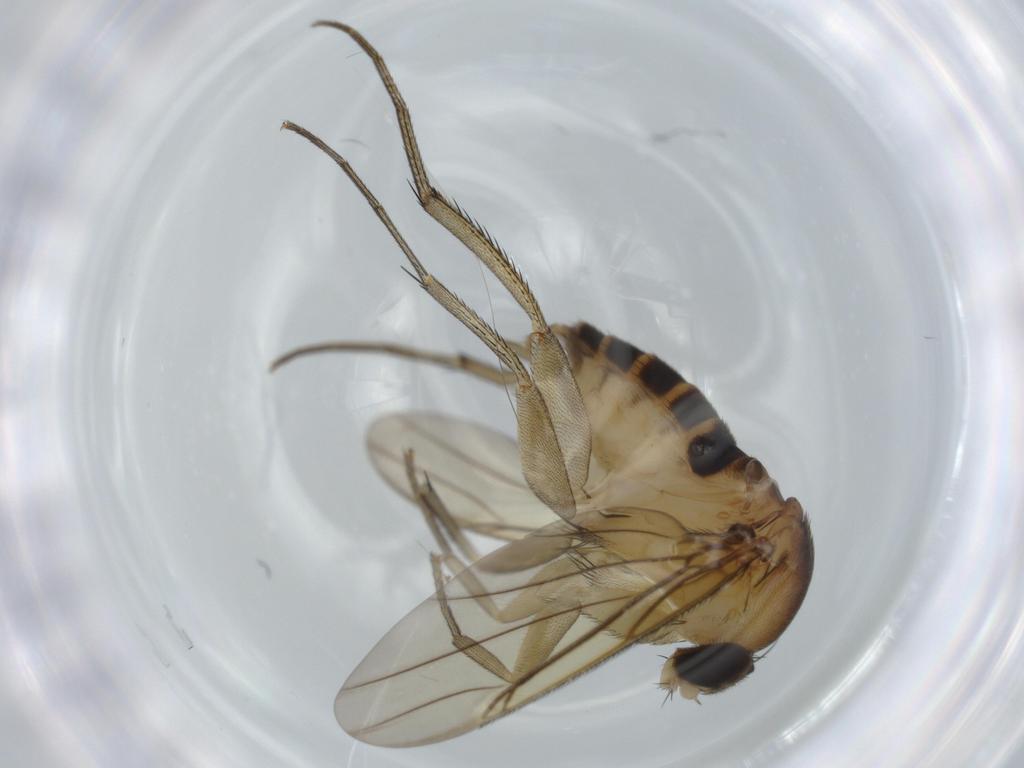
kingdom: Animalia
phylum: Arthropoda
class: Insecta
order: Diptera
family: Phoridae
